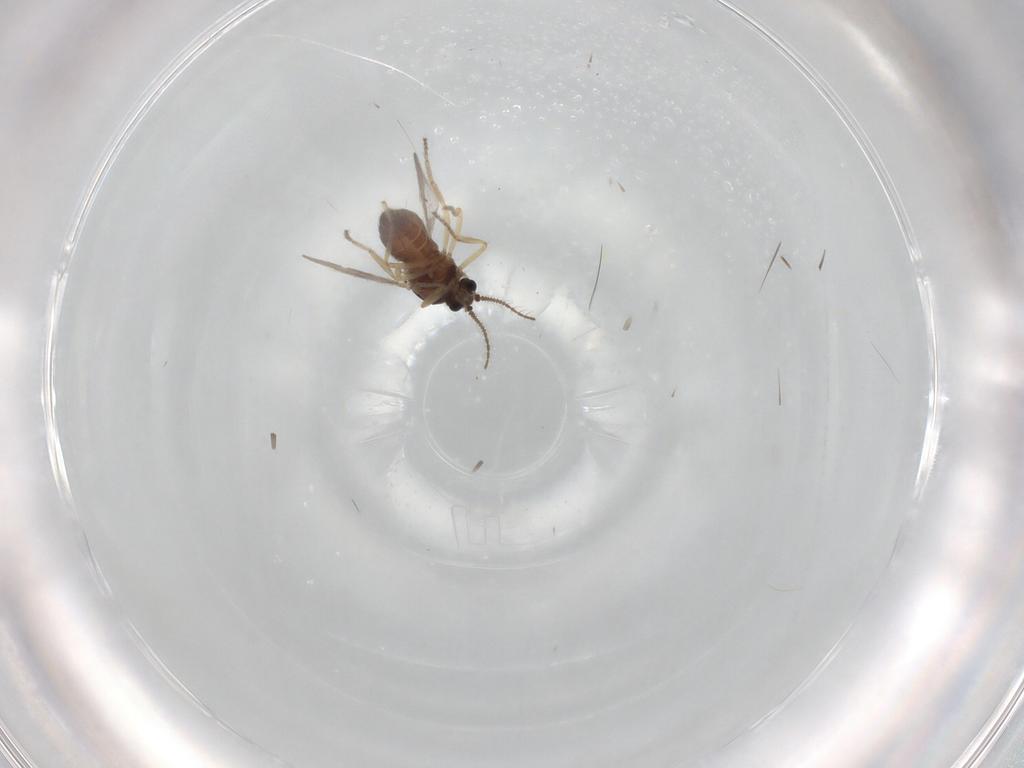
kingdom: Animalia
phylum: Arthropoda
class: Insecta
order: Diptera
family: Ceratopogonidae
